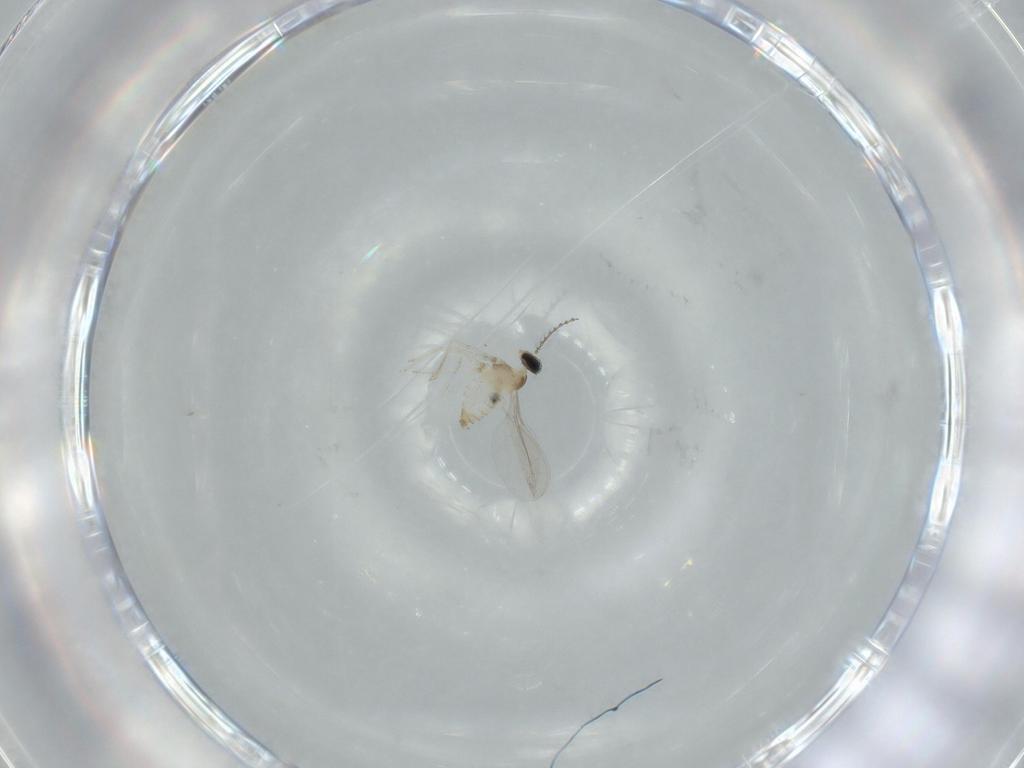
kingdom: Animalia
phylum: Arthropoda
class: Insecta
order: Diptera
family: Cecidomyiidae
